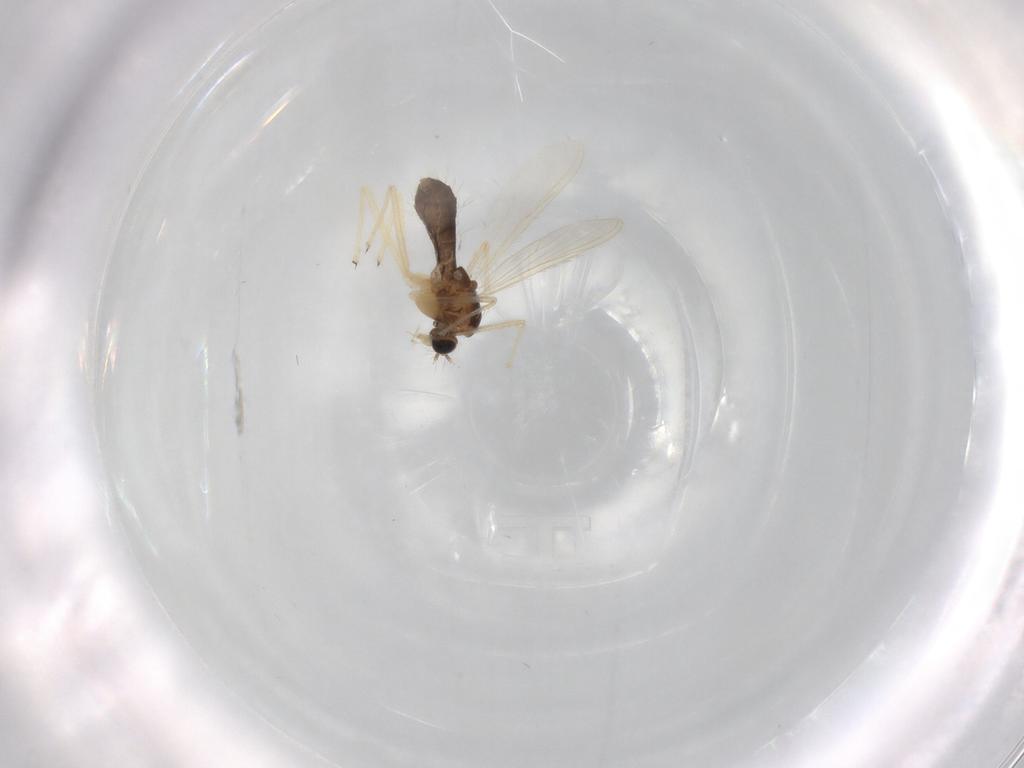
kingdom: Animalia
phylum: Arthropoda
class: Insecta
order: Diptera
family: Chironomidae
